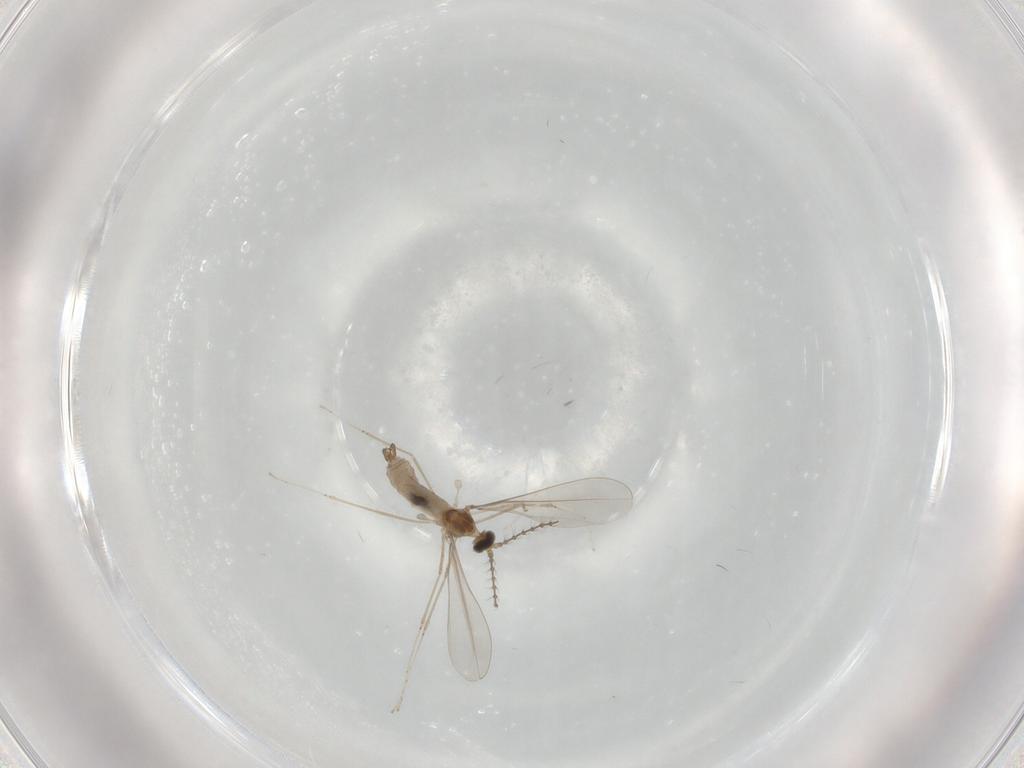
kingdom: Animalia
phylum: Arthropoda
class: Insecta
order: Diptera
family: Cecidomyiidae
